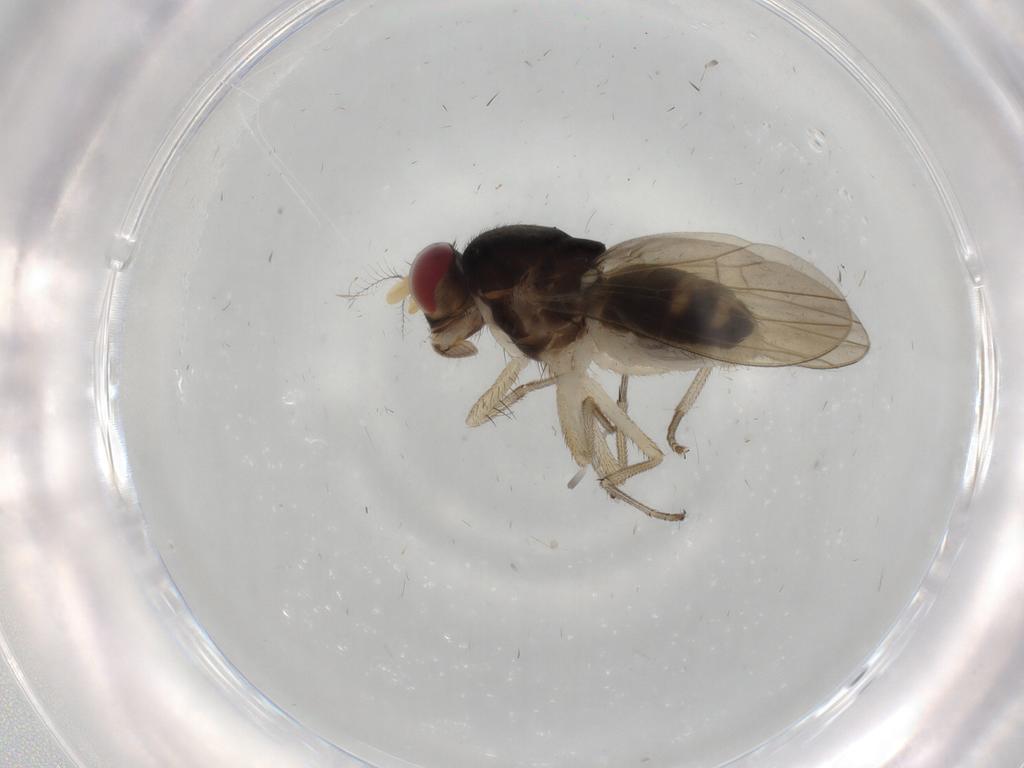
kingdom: Animalia
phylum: Arthropoda
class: Insecta
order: Diptera
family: Lauxaniidae
